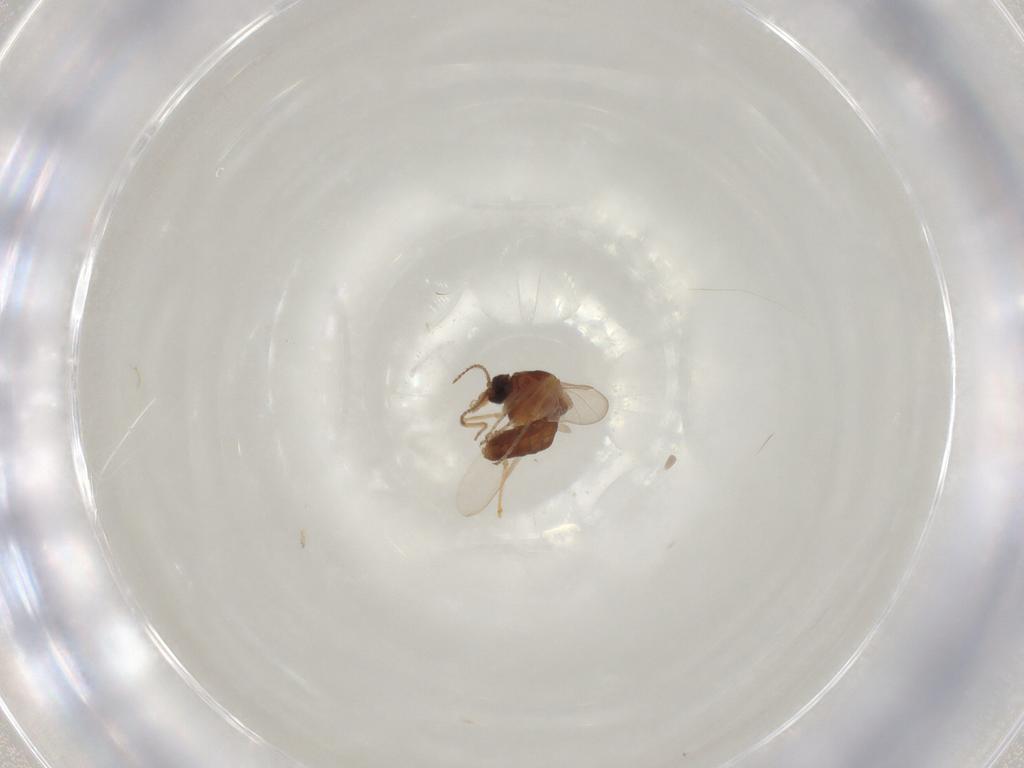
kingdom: Animalia
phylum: Arthropoda
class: Insecta
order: Diptera
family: Ceratopogonidae
